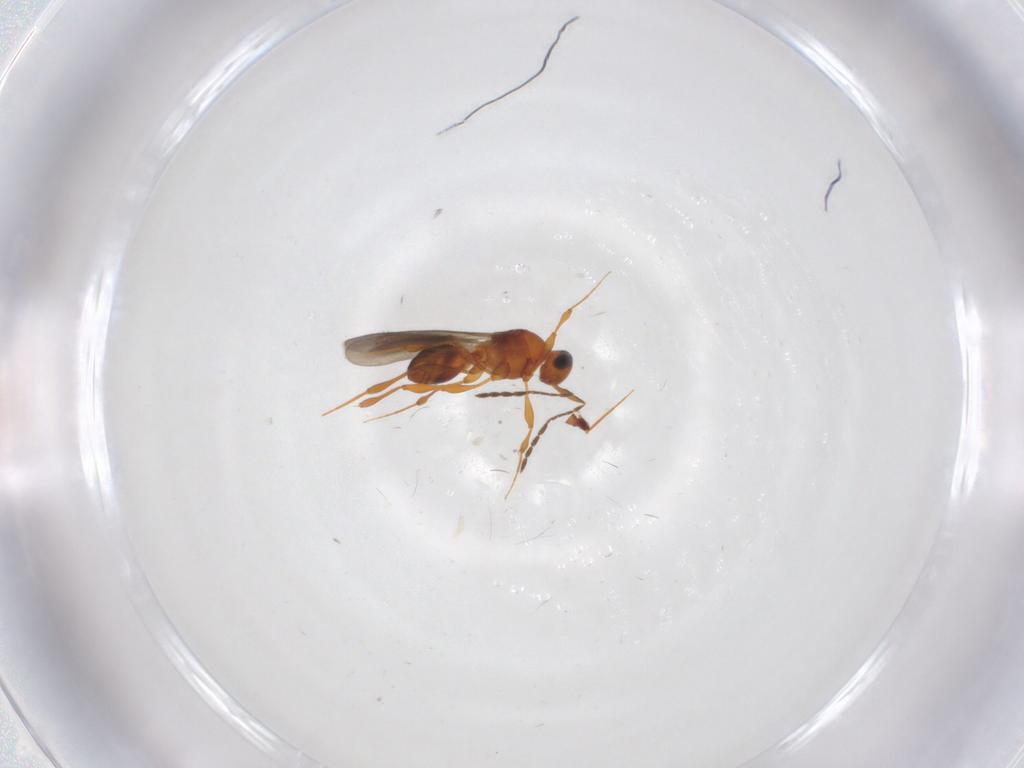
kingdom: Animalia
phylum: Arthropoda
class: Insecta
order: Hymenoptera
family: Platygastridae
